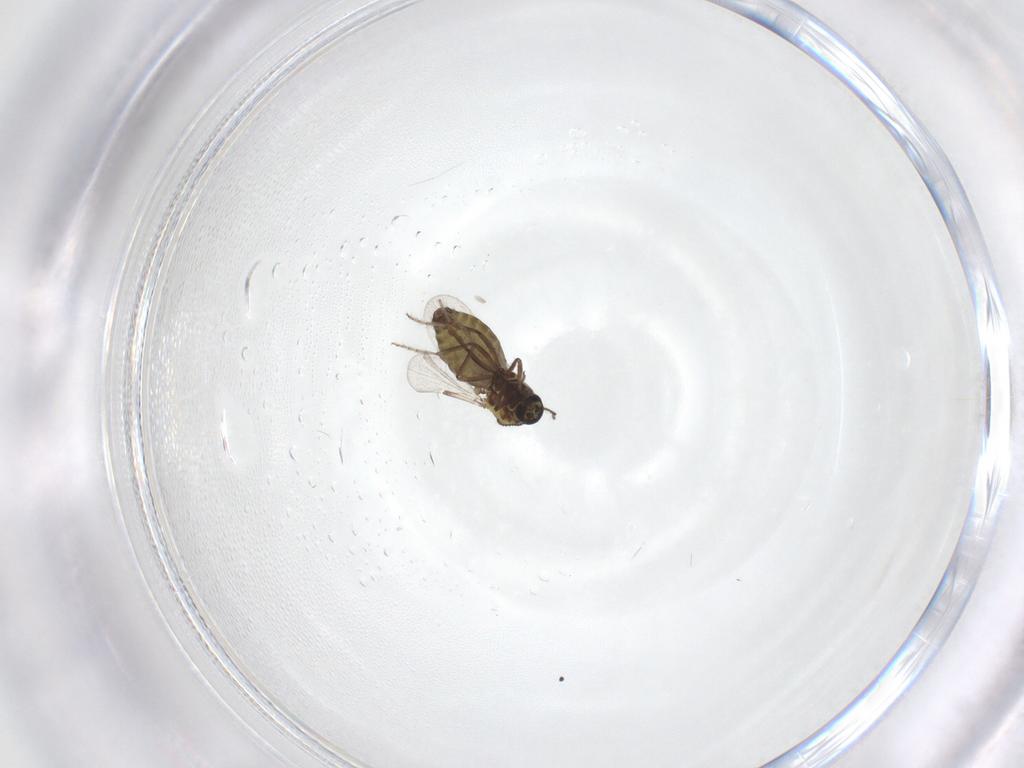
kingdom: Animalia
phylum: Arthropoda
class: Insecta
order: Diptera
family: Ceratopogonidae
